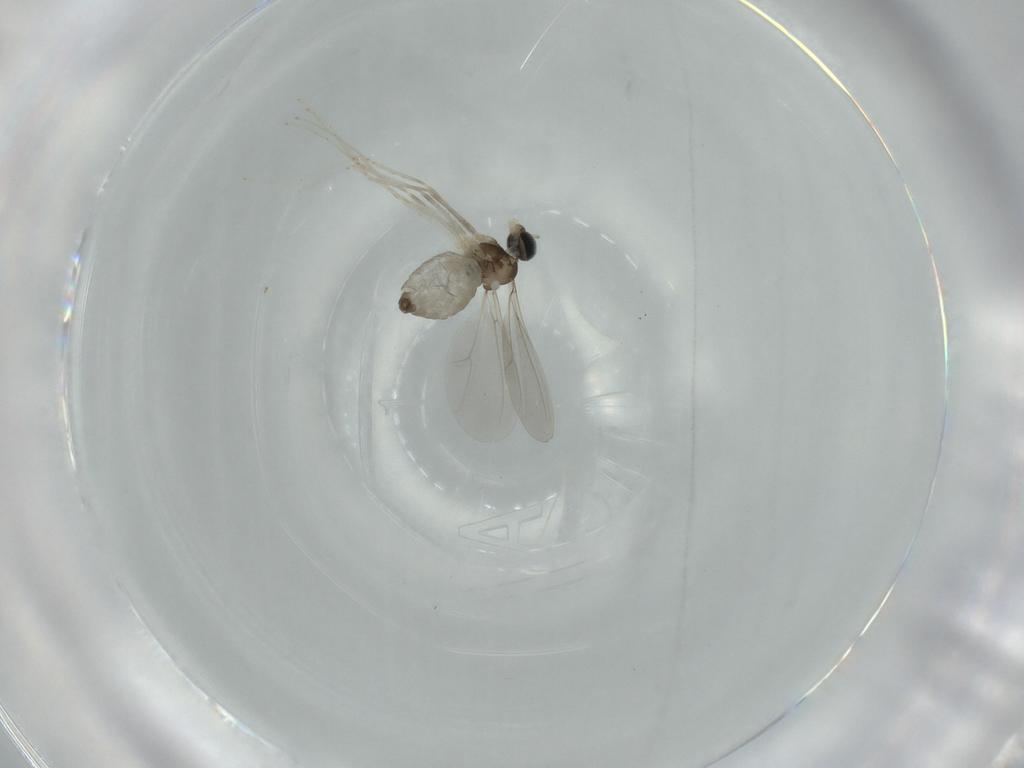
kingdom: Animalia
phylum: Arthropoda
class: Insecta
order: Diptera
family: Cecidomyiidae
